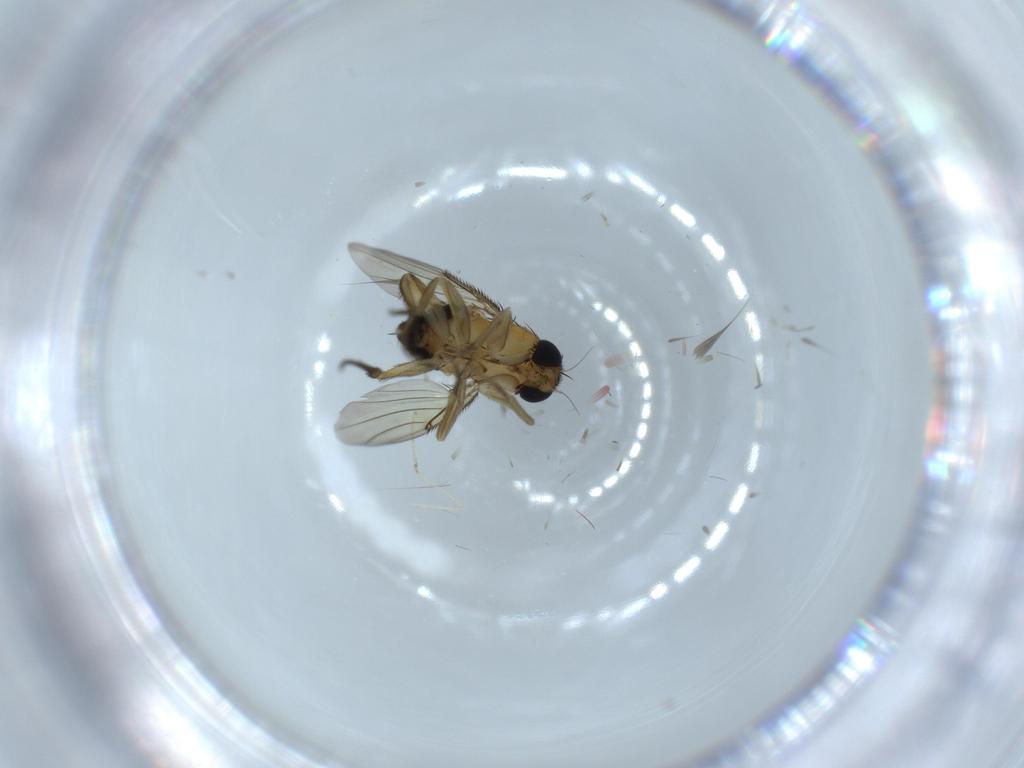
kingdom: Animalia
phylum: Arthropoda
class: Insecta
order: Diptera
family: Phoridae
